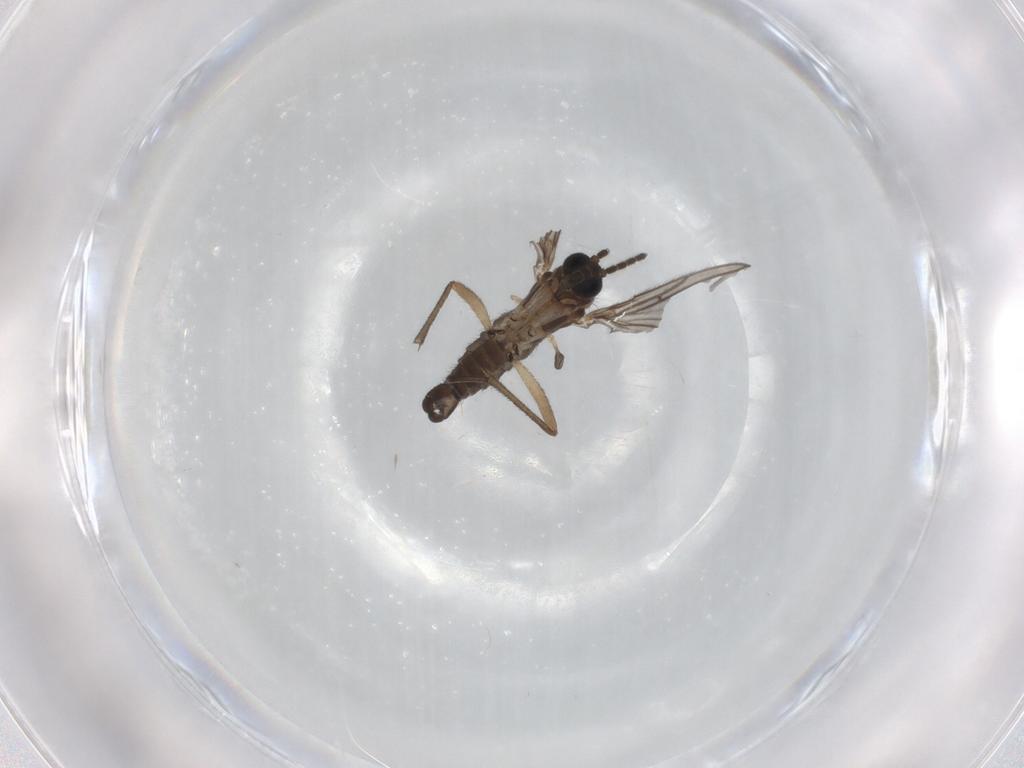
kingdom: Animalia
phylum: Arthropoda
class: Insecta
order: Diptera
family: Sciaridae
